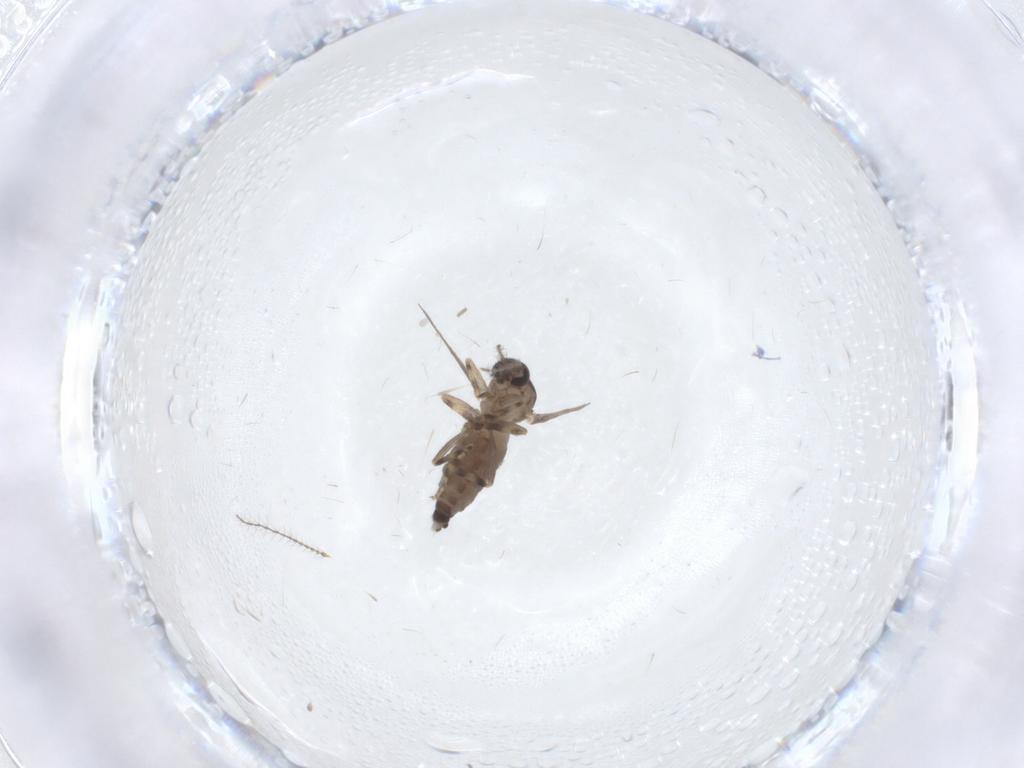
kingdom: Animalia
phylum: Arthropoda
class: Insecta
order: Diptera
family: Ceratopogonidae
